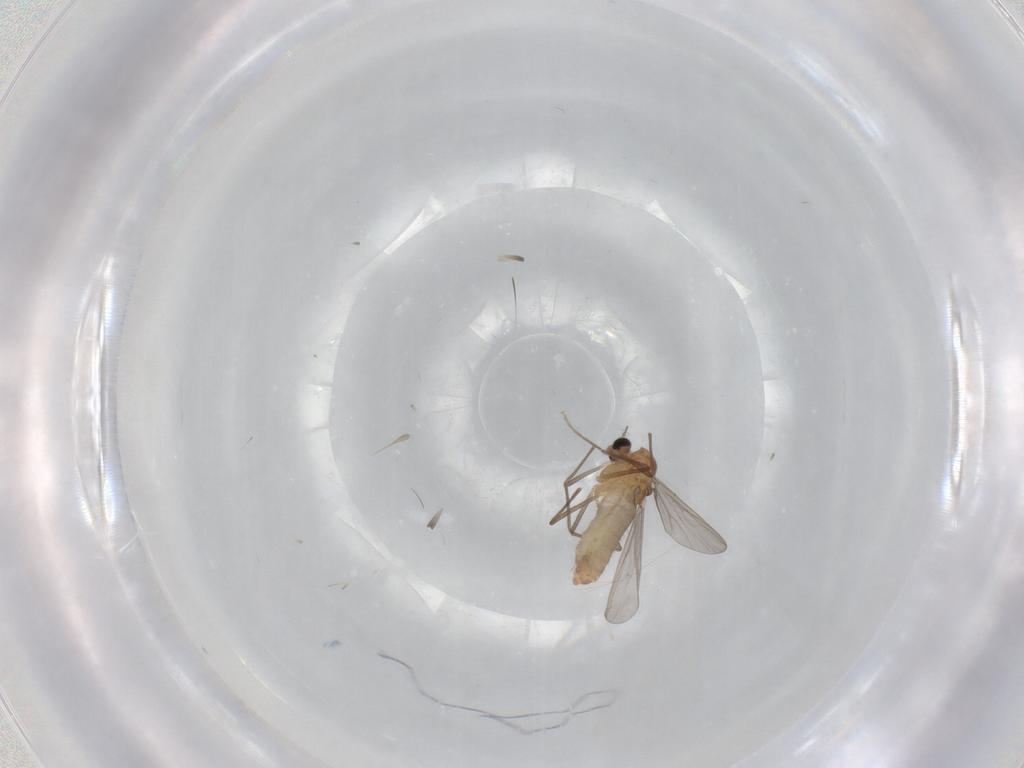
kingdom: Animalia
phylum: Arthropoda
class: Insecta
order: Diptera
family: Chironomidae
